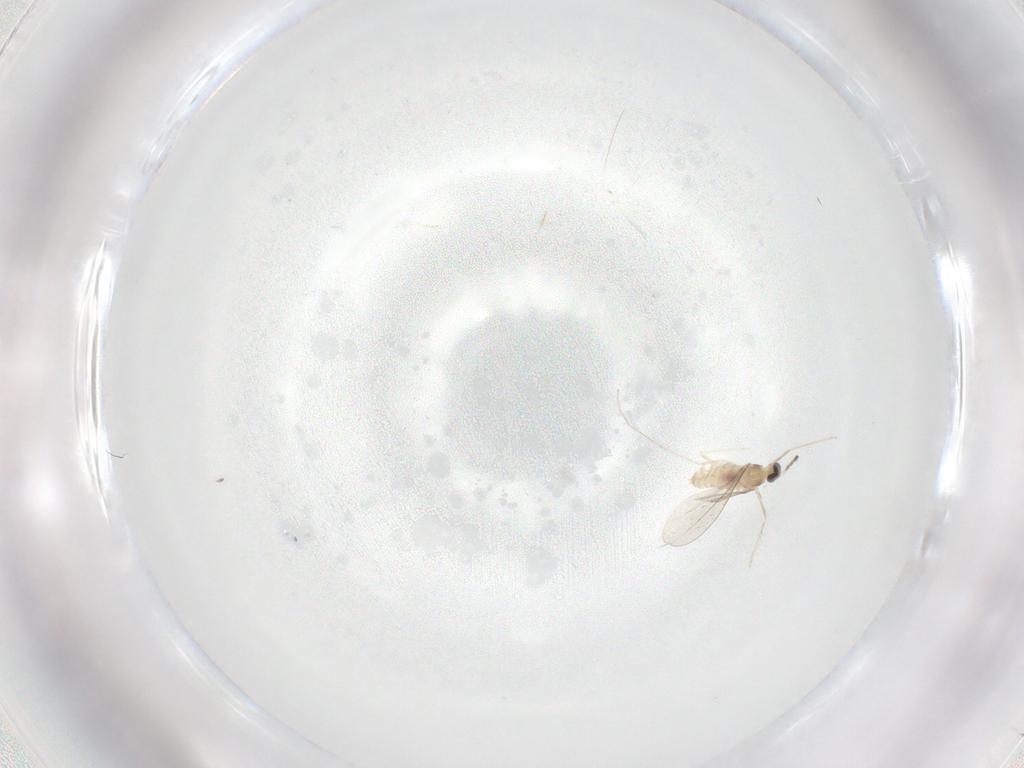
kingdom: Animalia
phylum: Arthropoda
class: Insecta
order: Diptera
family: Cecidomyiidae
